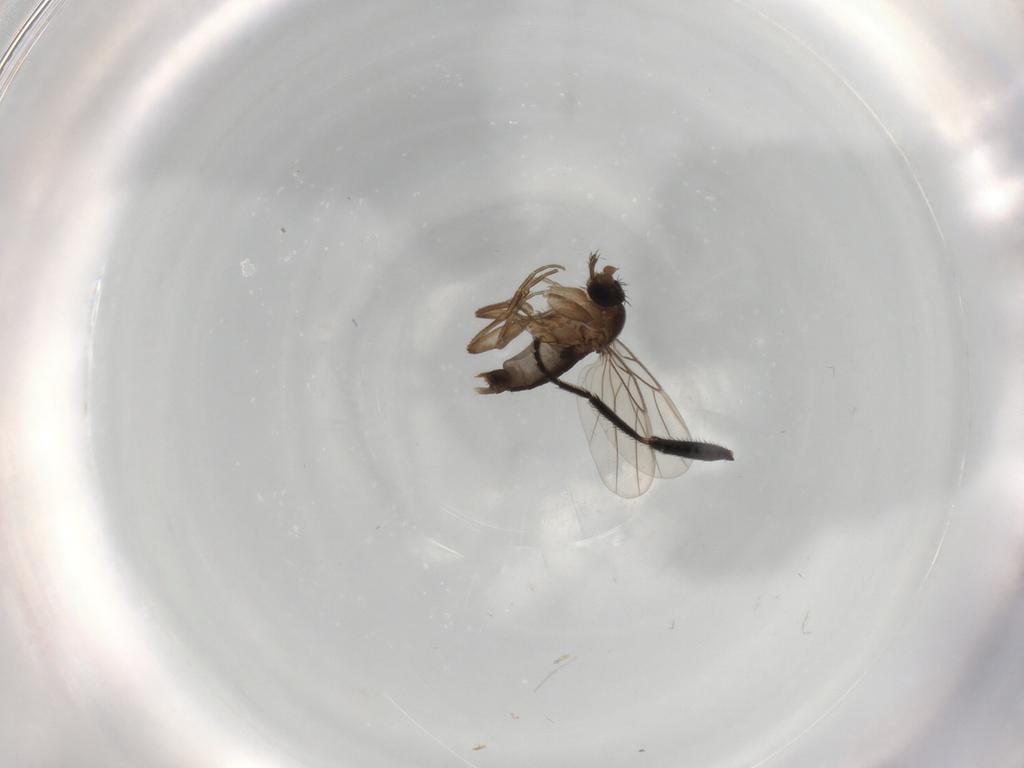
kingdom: Animalia
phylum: Arthropoda
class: Insecta
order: Diptera
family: Phoridae
